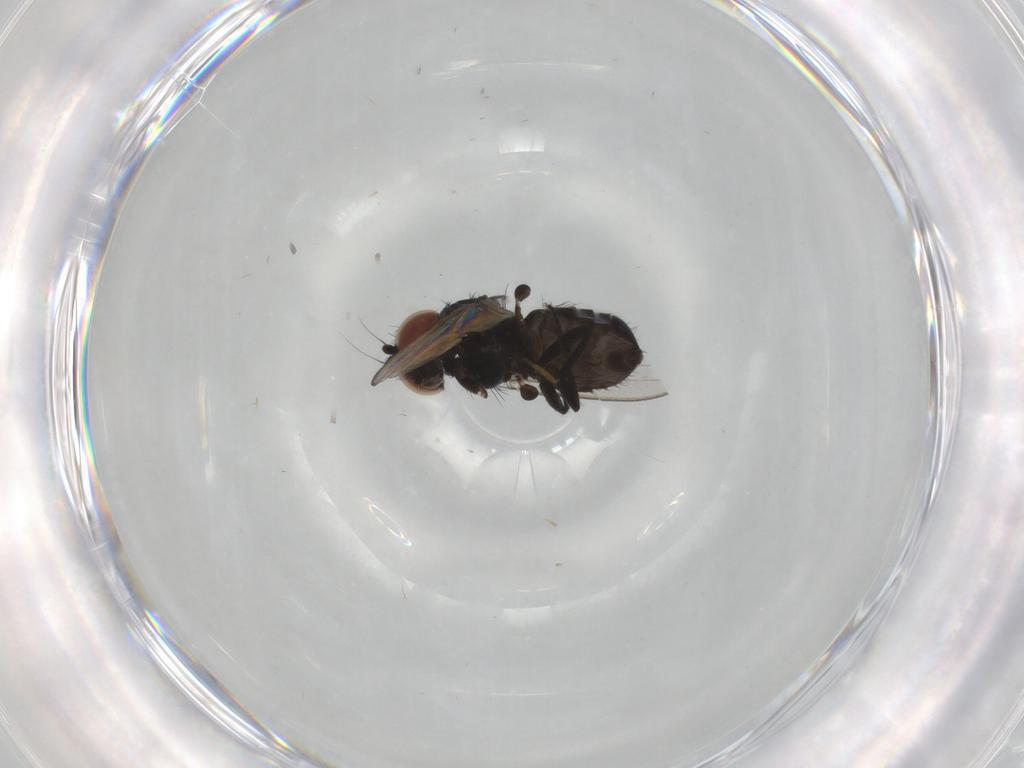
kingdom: Animalia
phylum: Arthropoda
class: Insecta
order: Diptera
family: Milichiidae
